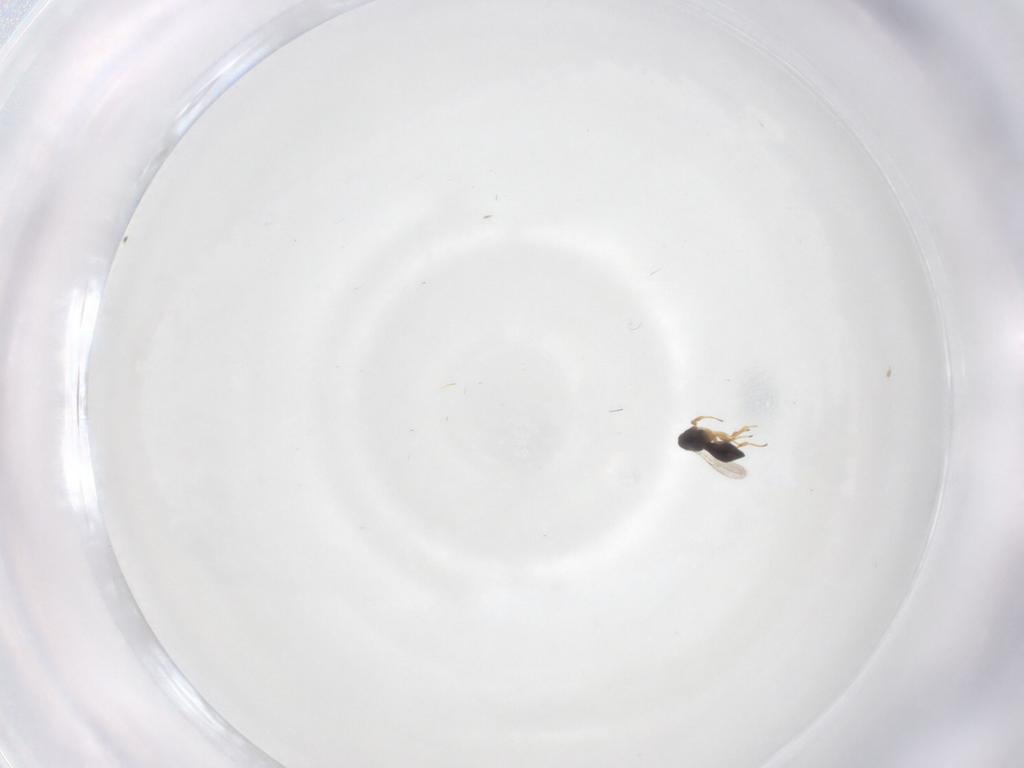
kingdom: Animalia
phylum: Arthropoda
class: Insecta
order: Hymenoptera
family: Scelionidae
